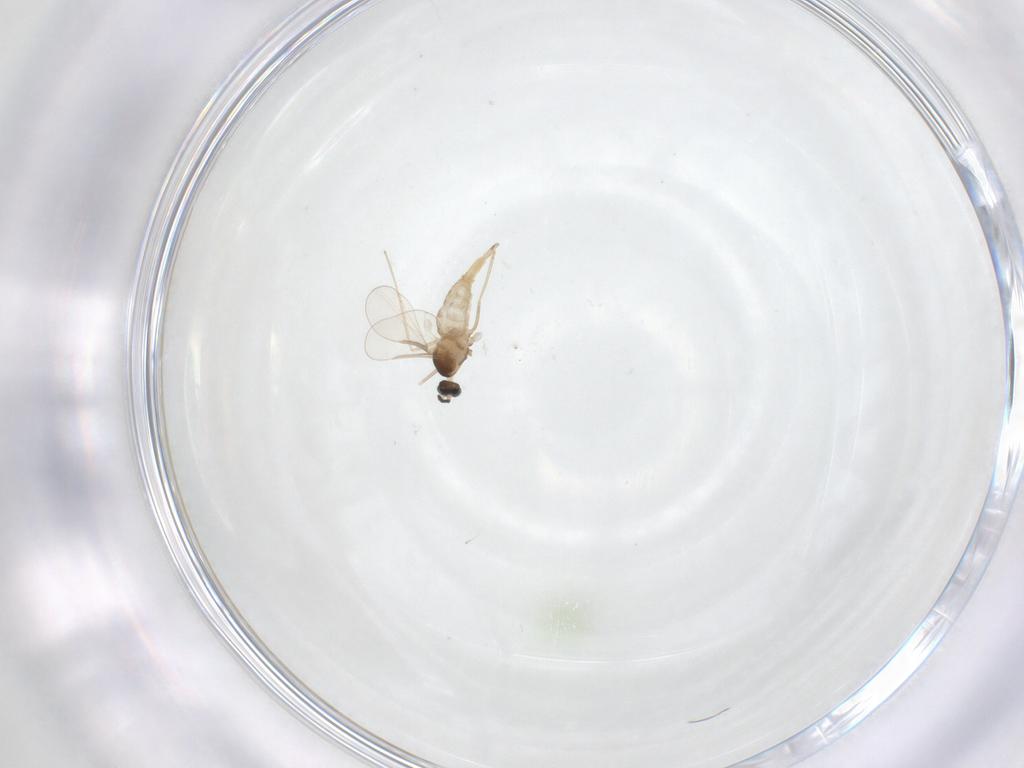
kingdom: Animalia
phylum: Arthropoda
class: Insecta
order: Diptera
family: Cecidomyiidae
